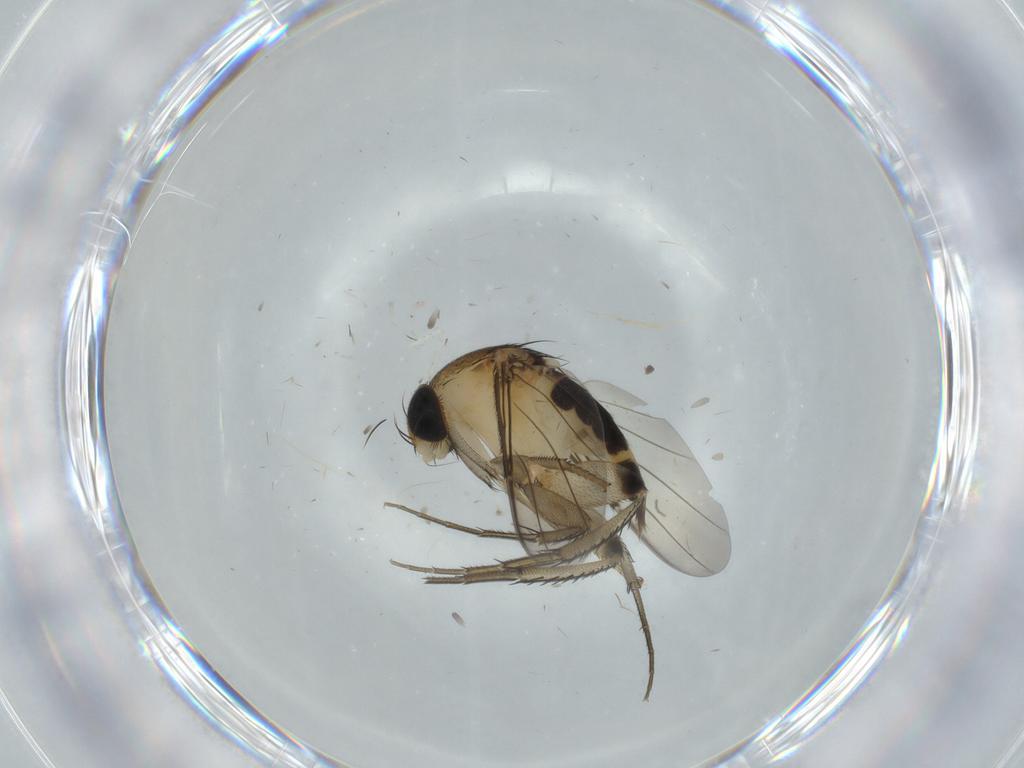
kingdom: Animalia
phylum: Arthropoda
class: Insecta
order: Diptera
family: Phoridae
